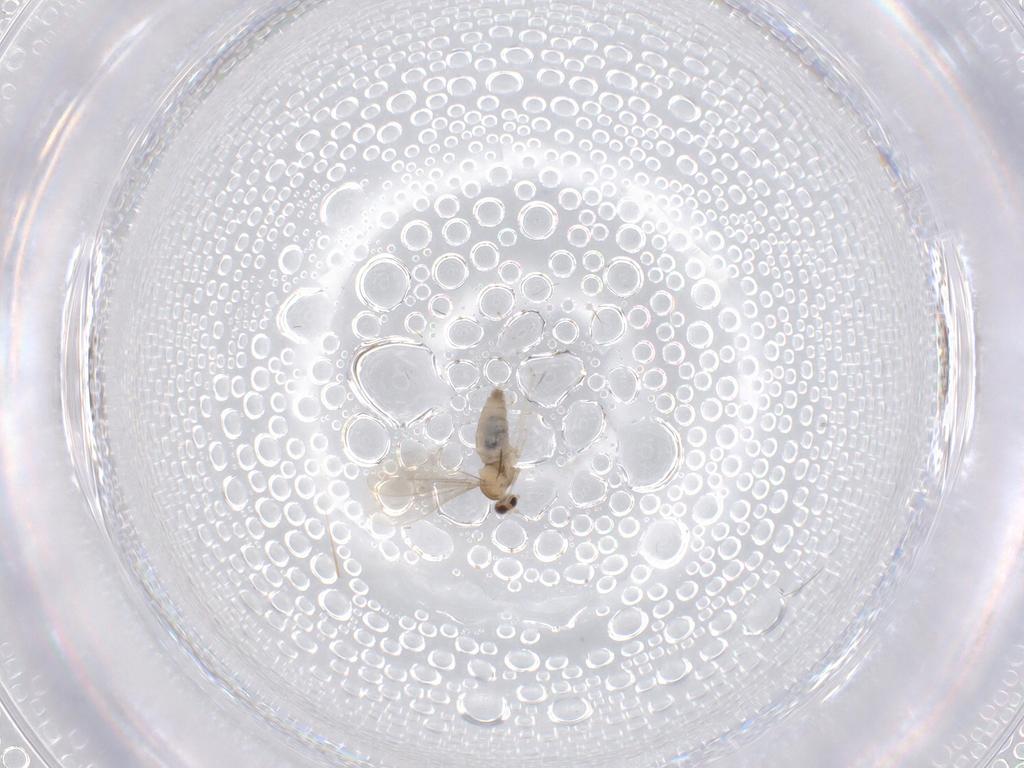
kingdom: Animalia
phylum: Arthropoda
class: Insecta
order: Diptera
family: Cecidomyiidae
